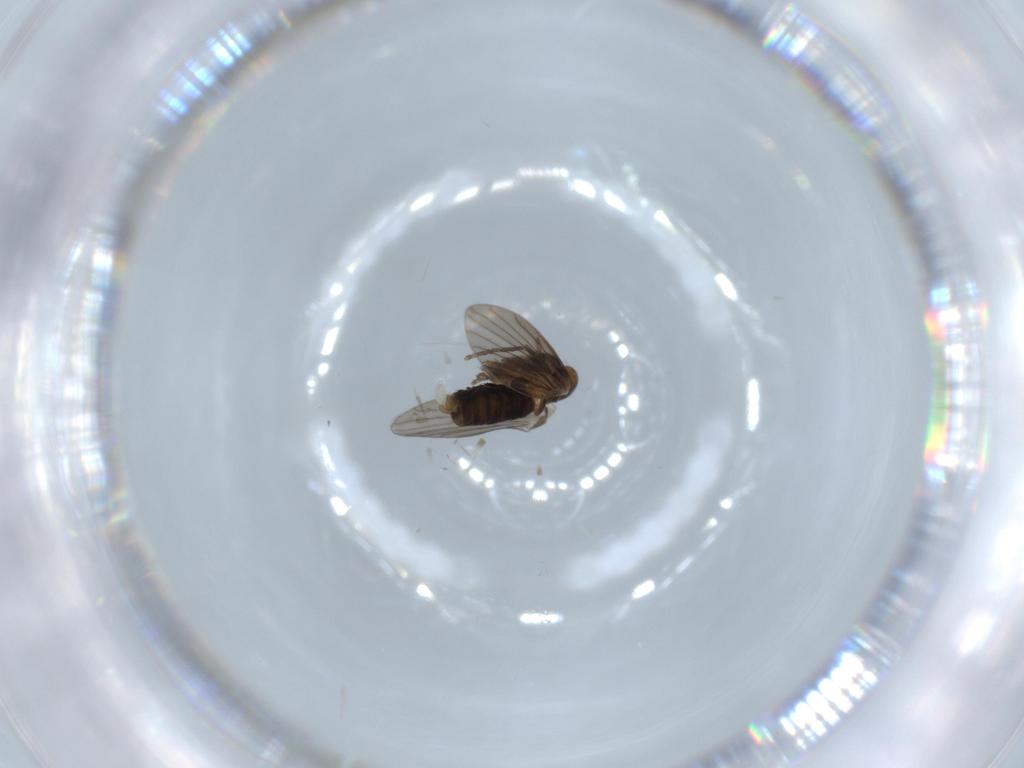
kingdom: Animalia
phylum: Arthropoda
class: Insecta
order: Diptera
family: Psychodidae
